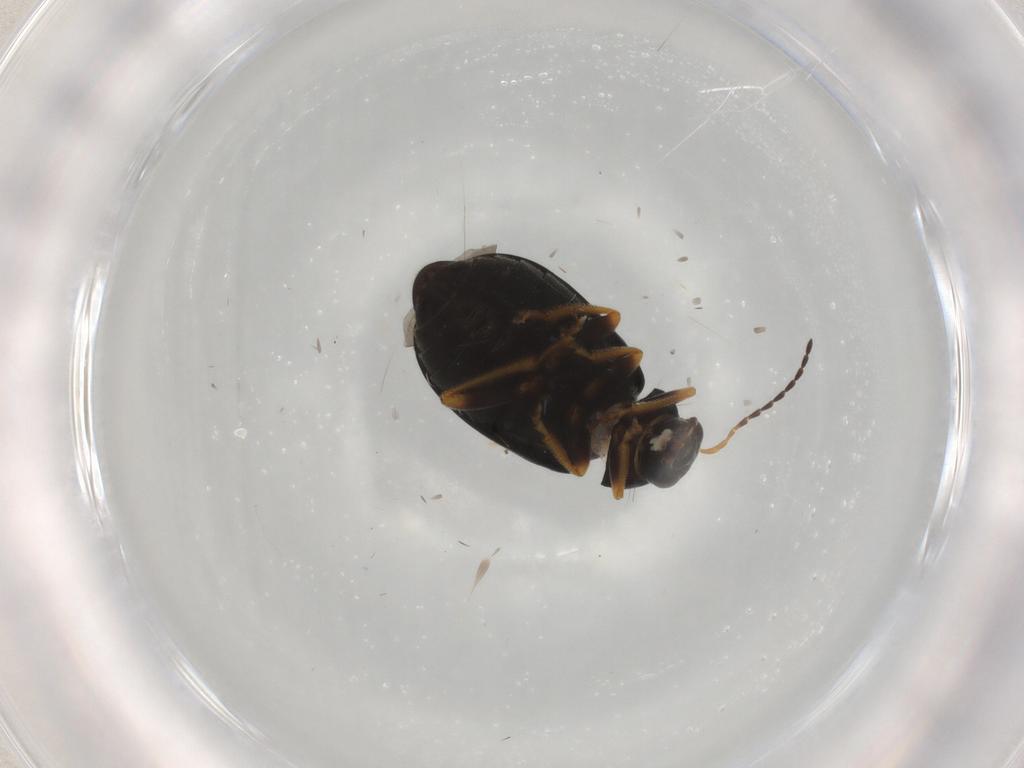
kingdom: Animalia
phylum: Arthropoda
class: Insecta
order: Coleoptera
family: Chrysomelidae
